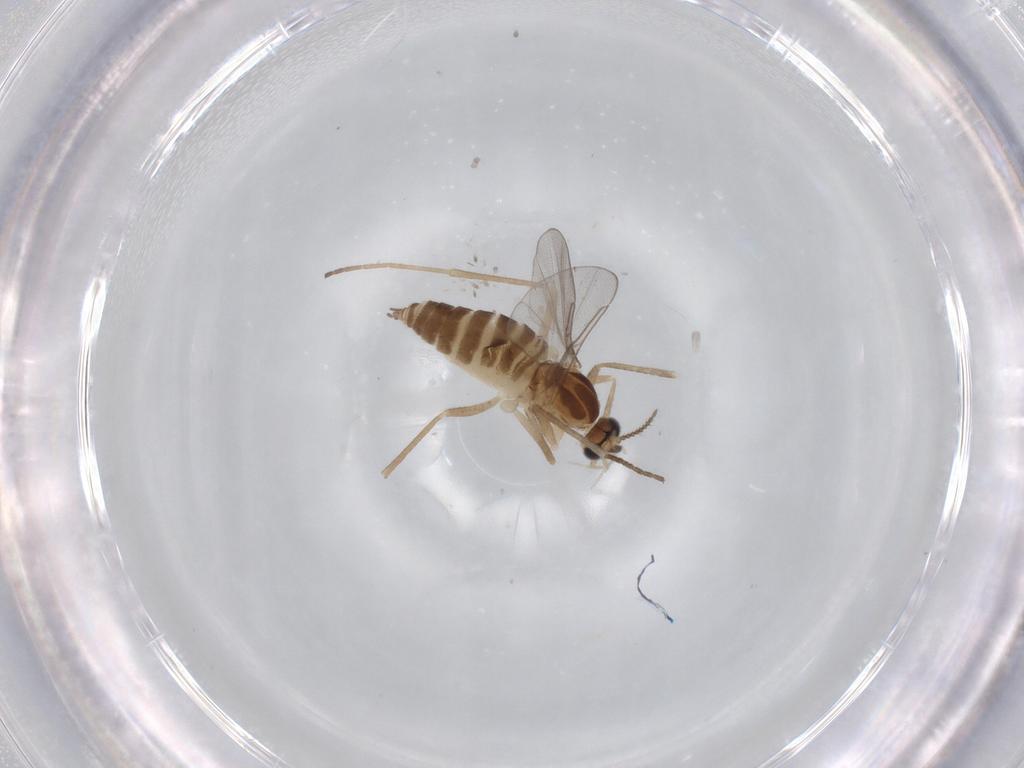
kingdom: Animalia
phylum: Arthropoda
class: Insecta
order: Diptera
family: Cecidomyiidae
